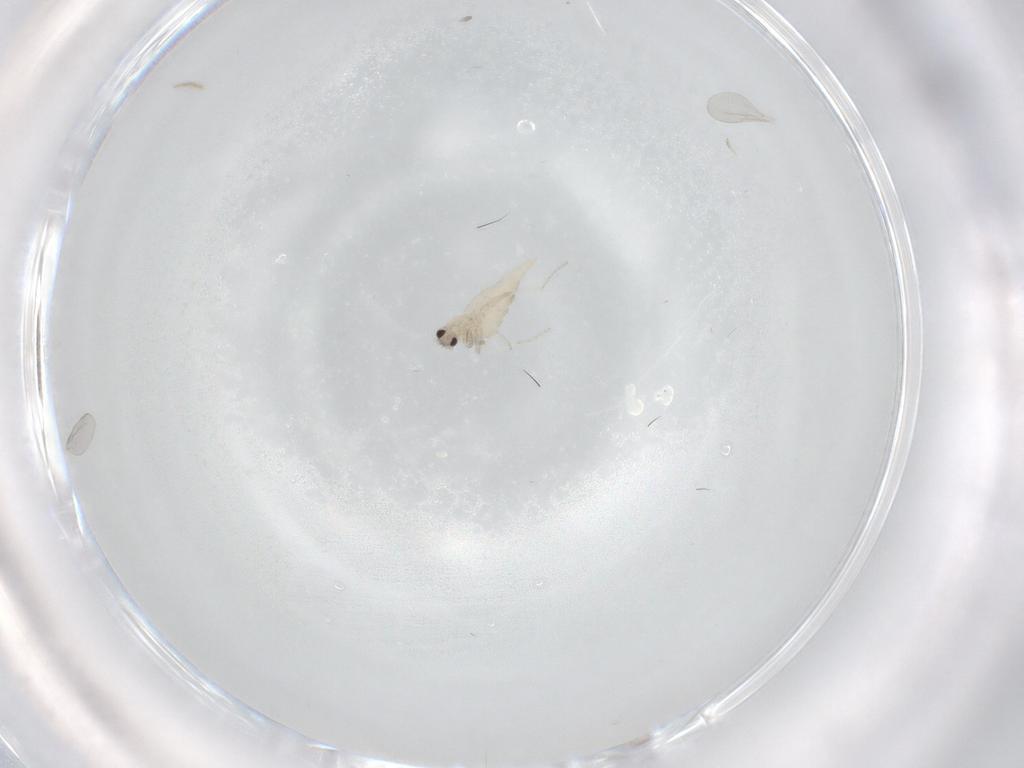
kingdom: Animalia
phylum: Arthropoda
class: Insecta
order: Diptera
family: Cecidomyiidae
